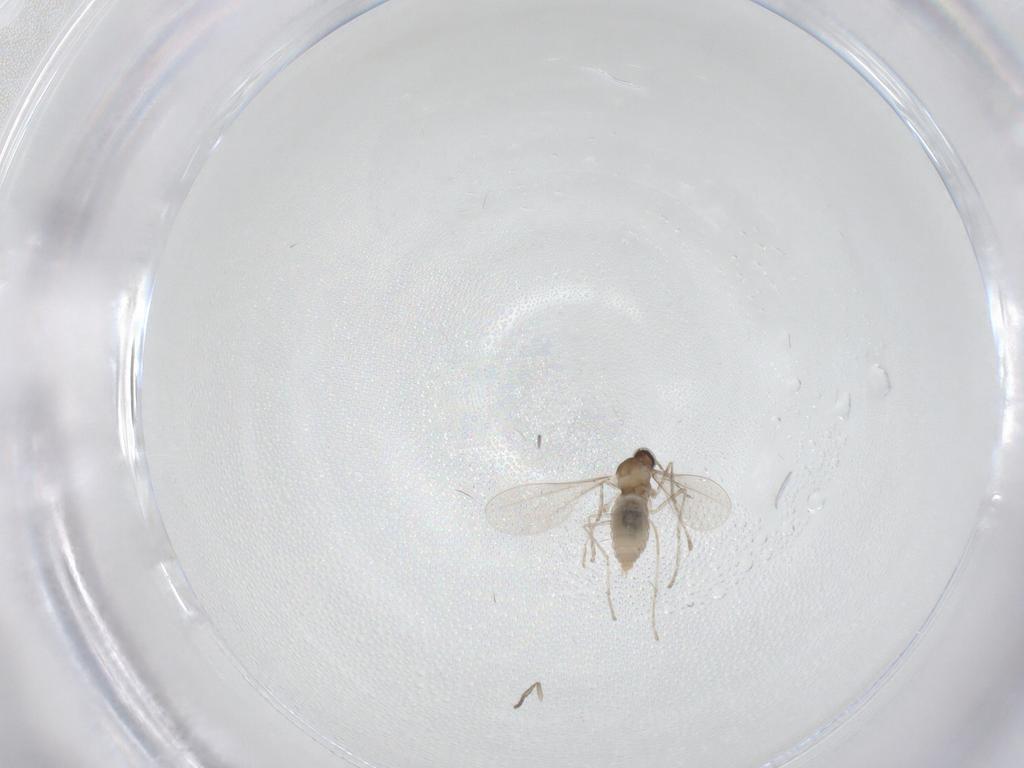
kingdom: Animalia
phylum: Arthropoda
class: Insecta
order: Diptera
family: Cecidomyiidae
